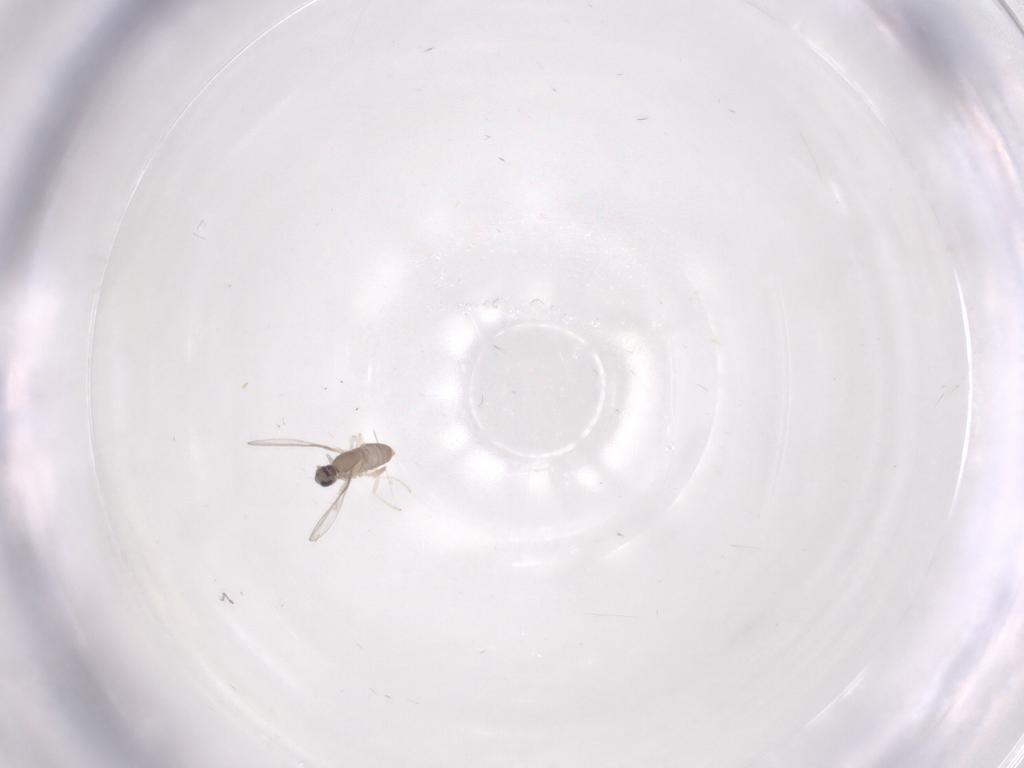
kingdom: Animalia
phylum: Arthropoda
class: Insecta
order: Diptera
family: Cecidomyiidae
